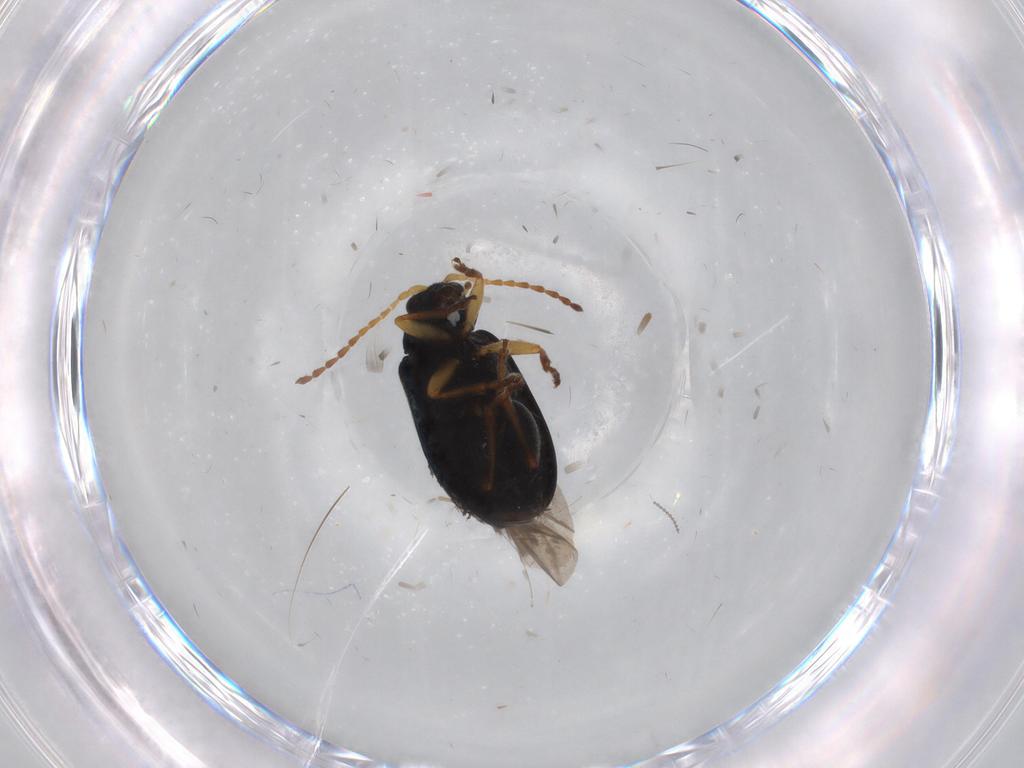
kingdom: Animalia
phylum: Arthropoda
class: Insecta
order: Coleoptera
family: Chrysomelidae
